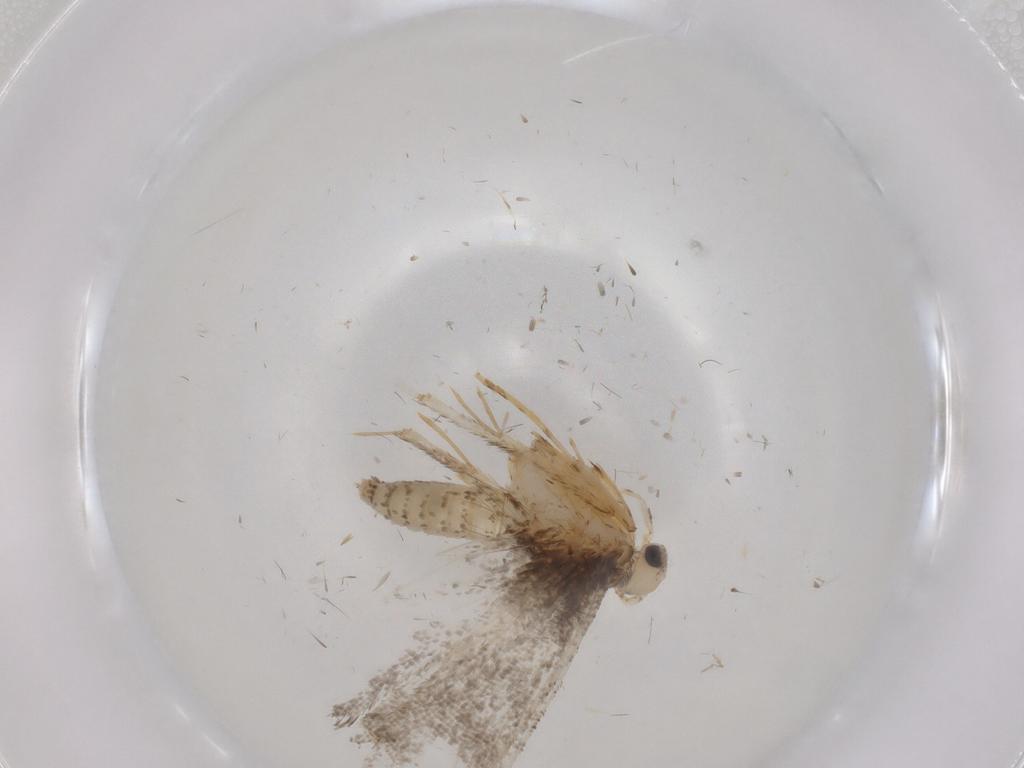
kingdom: Animalia
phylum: Arthropoda
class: Insecta
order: Lepidoptera
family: Tineidae
